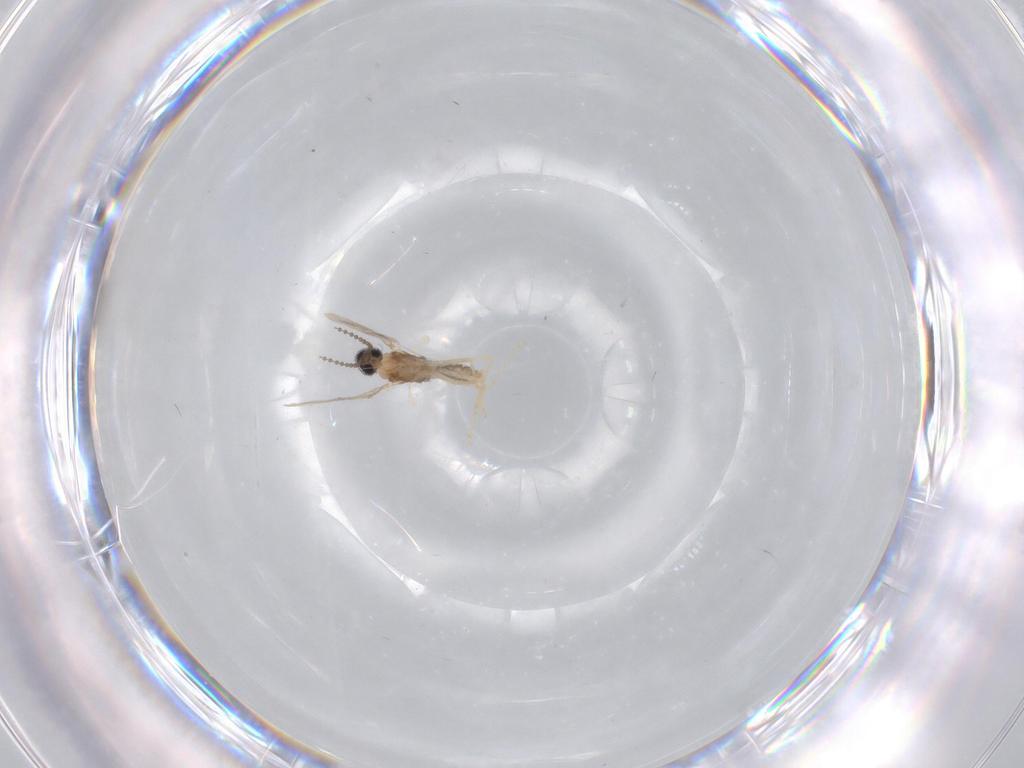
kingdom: Animalia
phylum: Arthropoda
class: Insecta
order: Diptera
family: Cecidomyiidae
